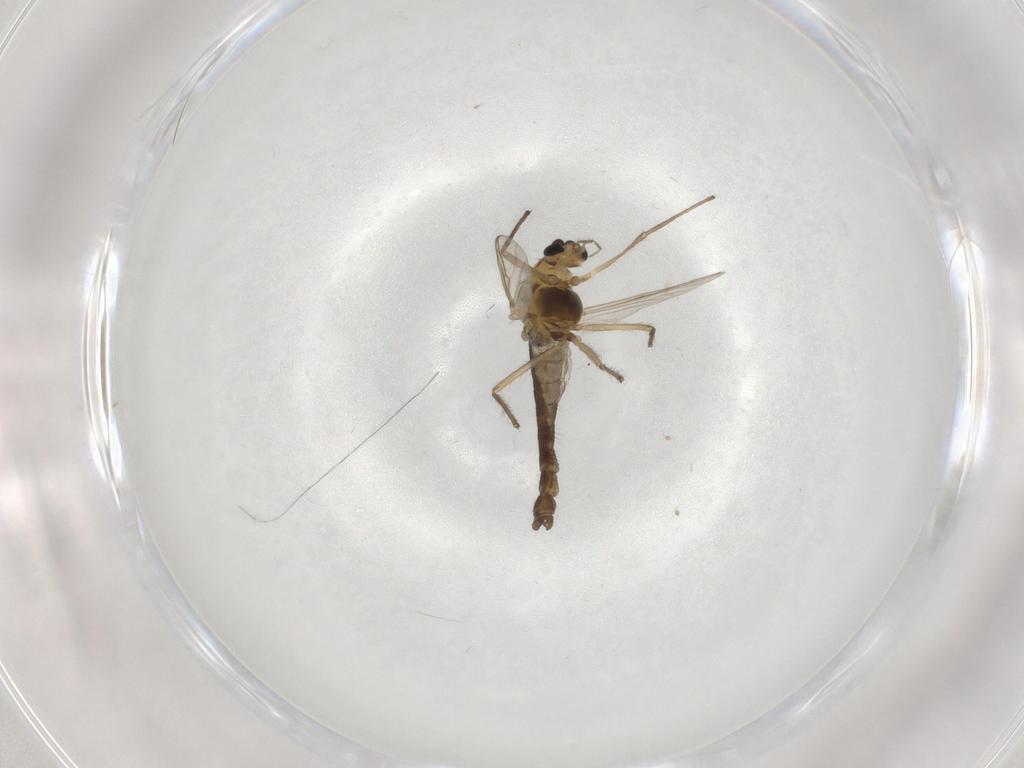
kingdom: Animalia
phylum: Arthropoda
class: Insecta
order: Diptera
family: Chironomidae
